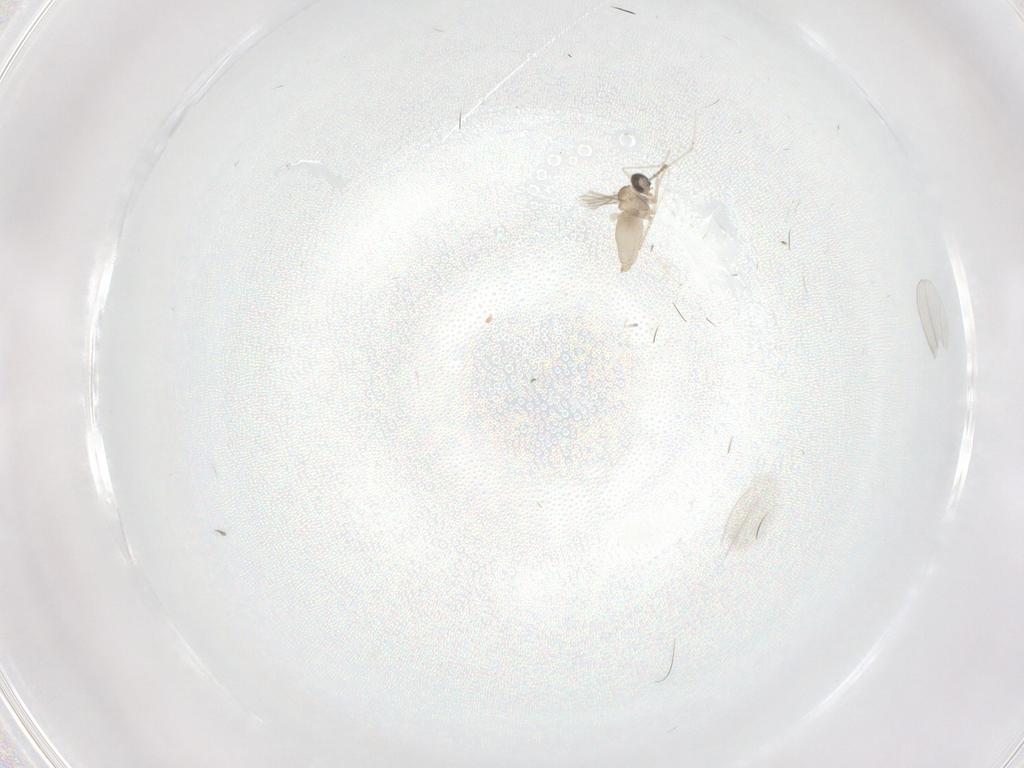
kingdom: Animalia
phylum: Arthropoda
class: Insecta
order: Diptera
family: Cecidomyiidae
